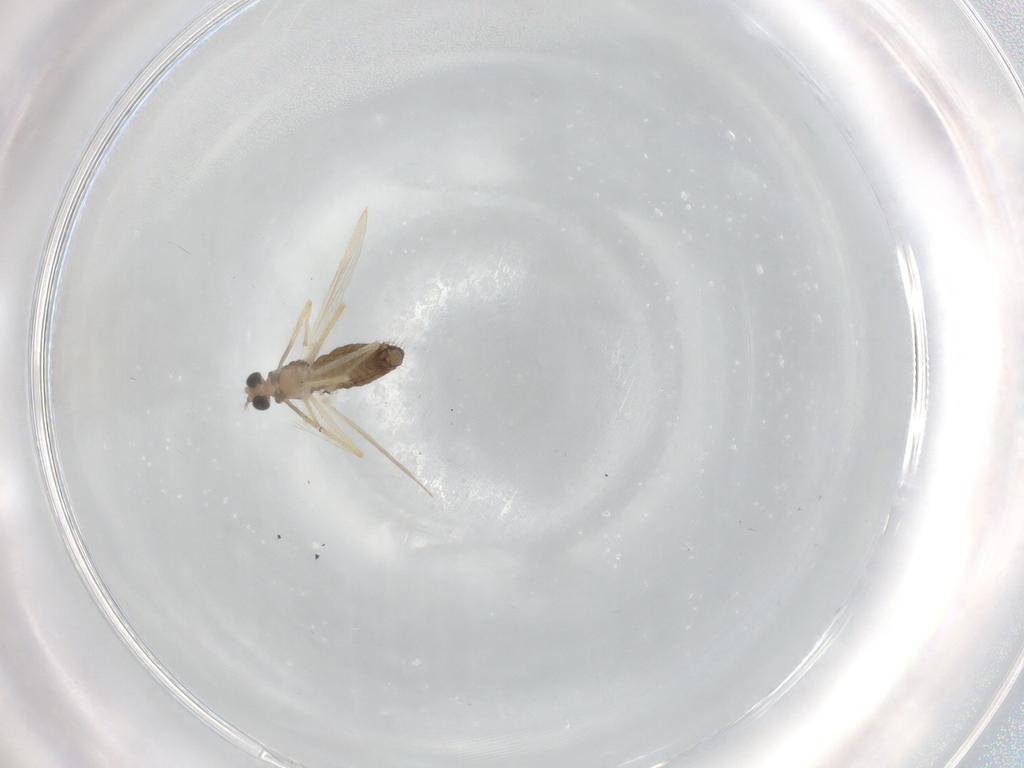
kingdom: Animalia
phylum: Arthropoda
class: Insecta
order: Diptera
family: Chironomidae
